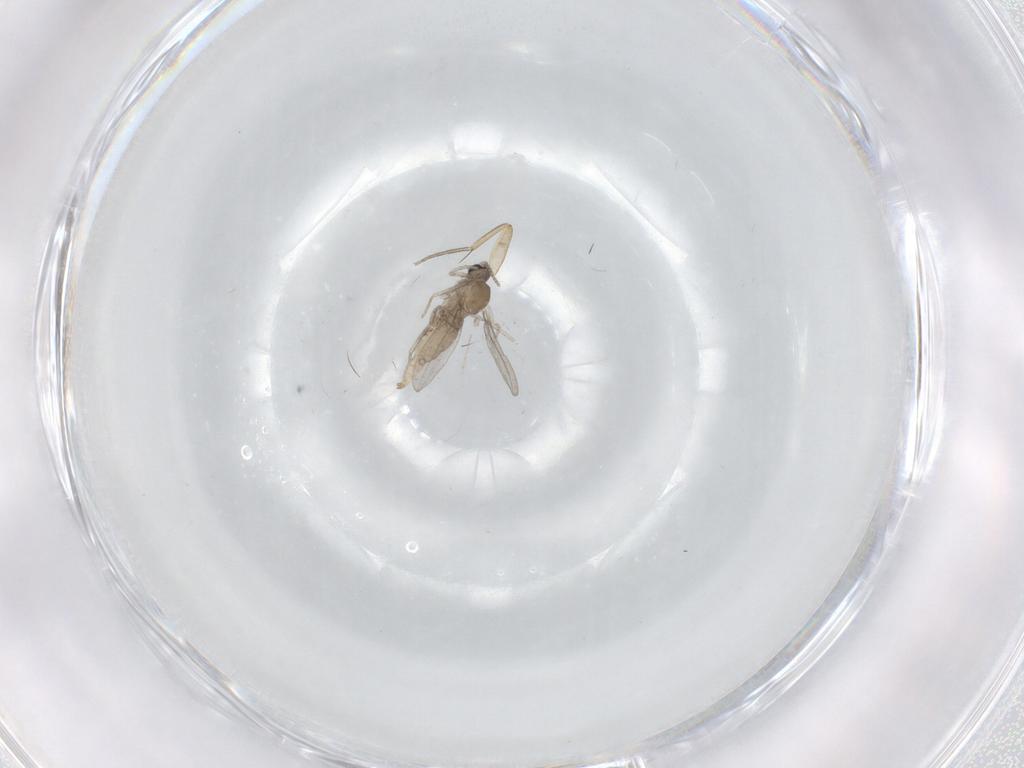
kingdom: Animalia
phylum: Arthropoda
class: Insecta
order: Diptera
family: Cecidomyiidae
